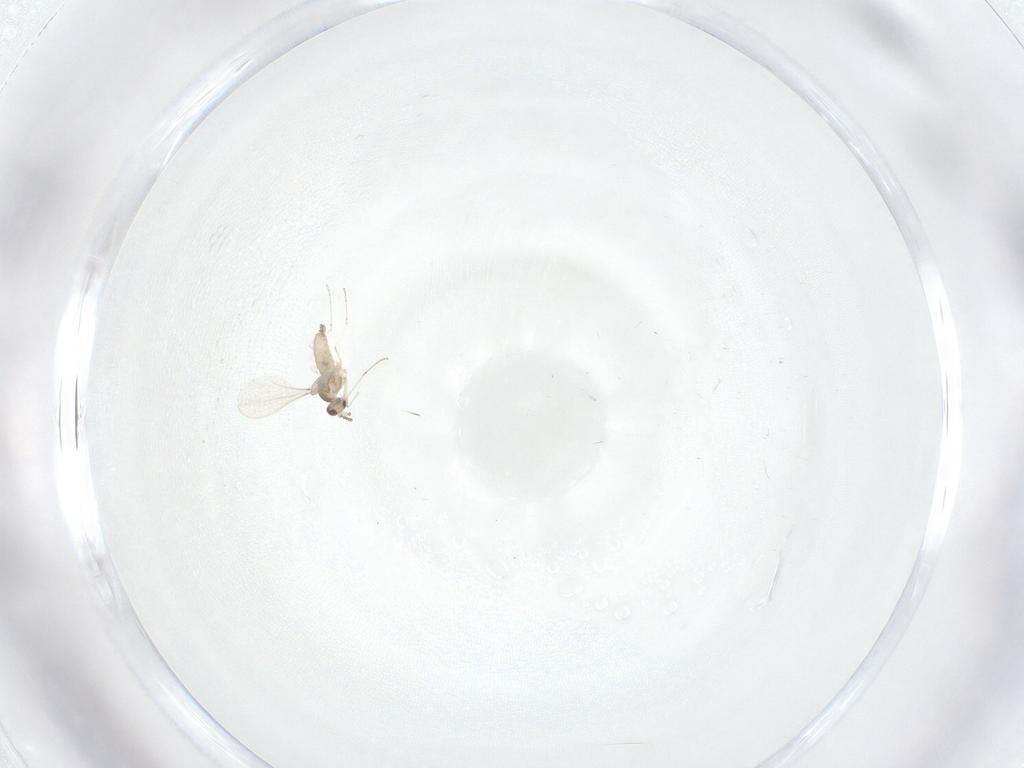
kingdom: Animalia
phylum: Arthropoda
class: Insecta
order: Diptera
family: Cecidomyiidae
